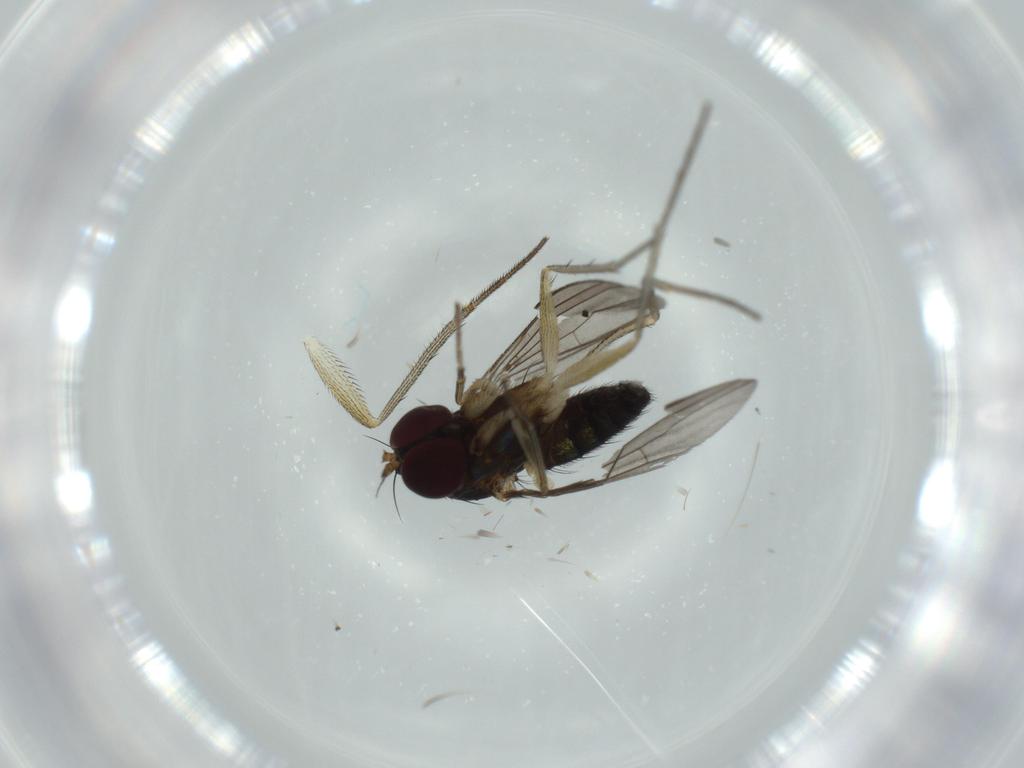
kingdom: Animalia
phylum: Arthropoda
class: Insecta
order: Diptera
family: Dolichopodidae
